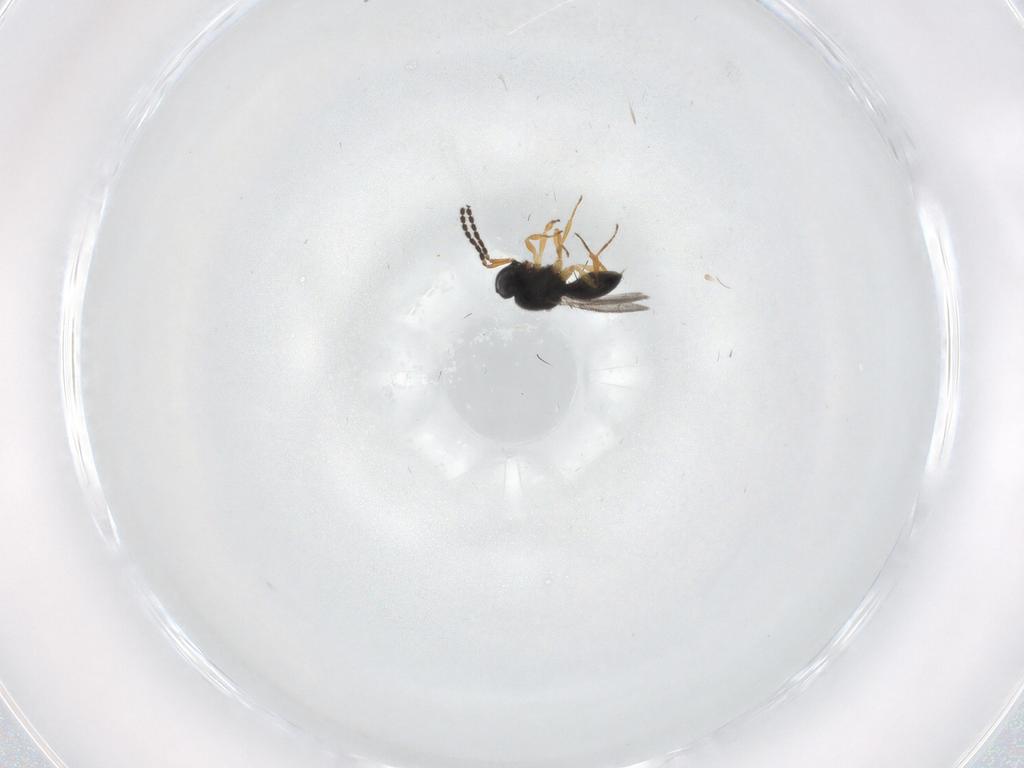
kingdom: Animalia
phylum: Arthropoda
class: Insecta
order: Hymenoptera
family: Scelionidae
